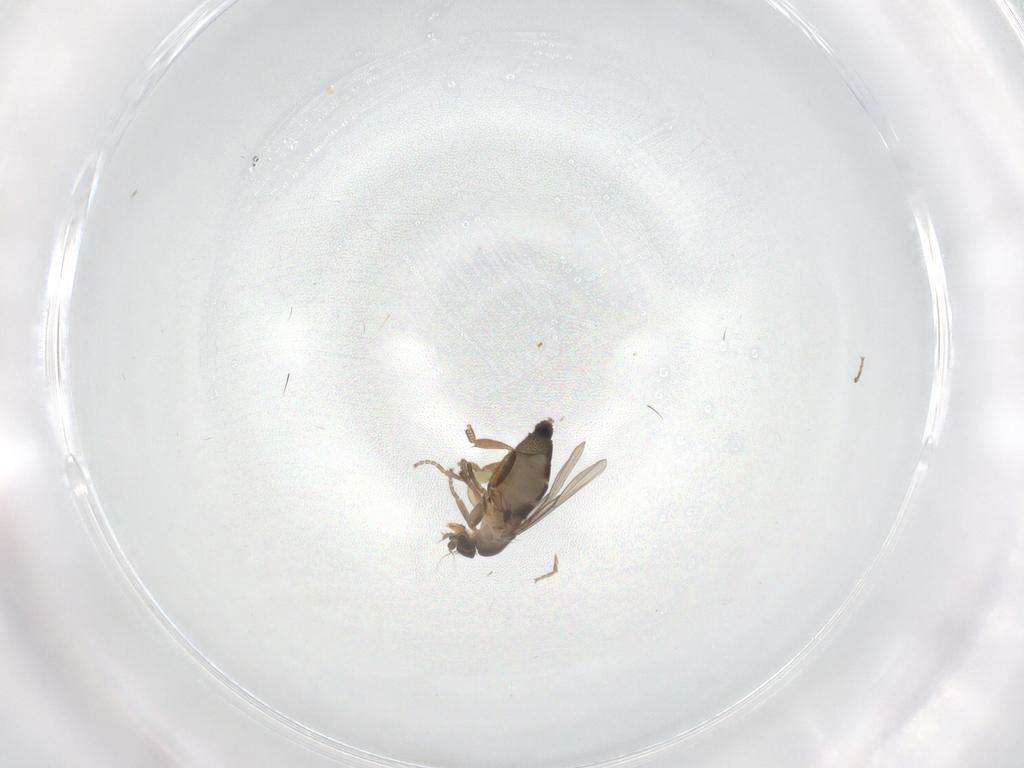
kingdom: Animalia
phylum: Arthropoda
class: Insecta
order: Diptera
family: Phoridae
